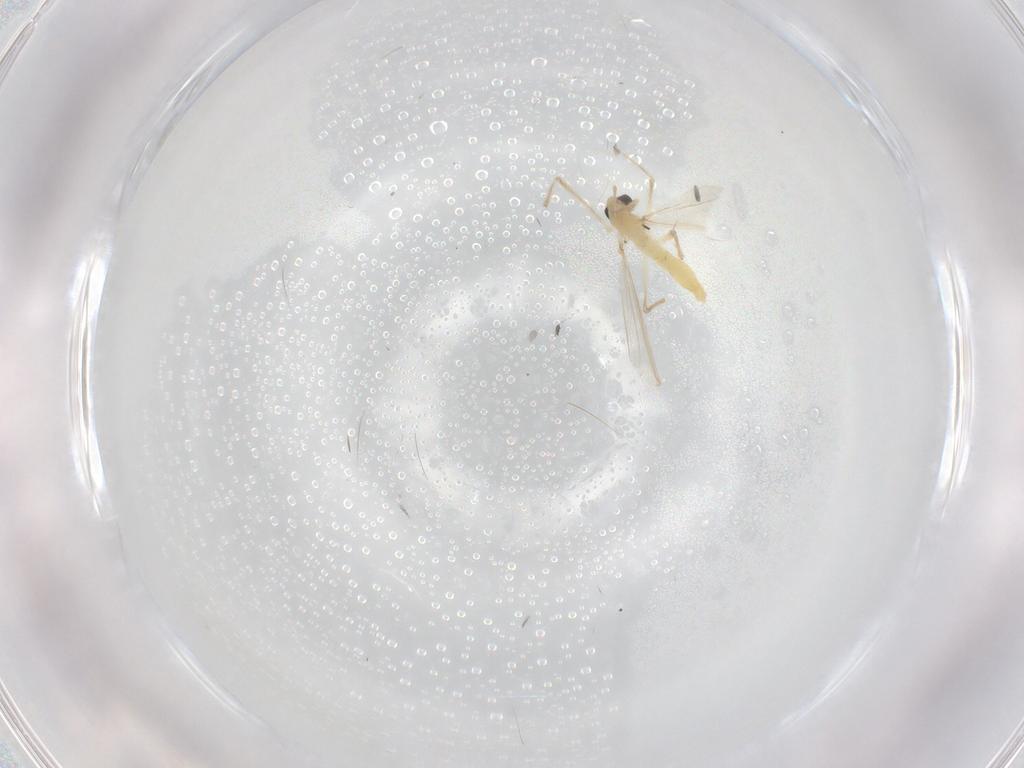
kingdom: Animalia
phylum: Arthropoda
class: Insecta
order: Diptera
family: Chironomidae
